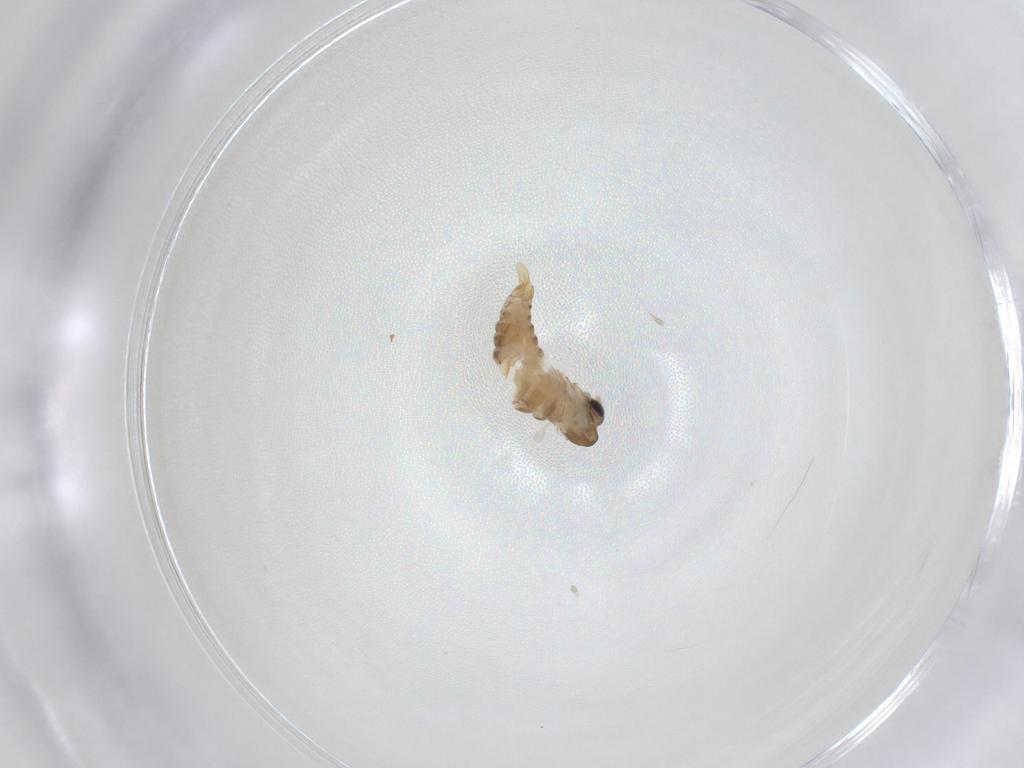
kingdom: Animalia
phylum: Arthropoda
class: Insecta
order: Diptera
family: Psychodidae
